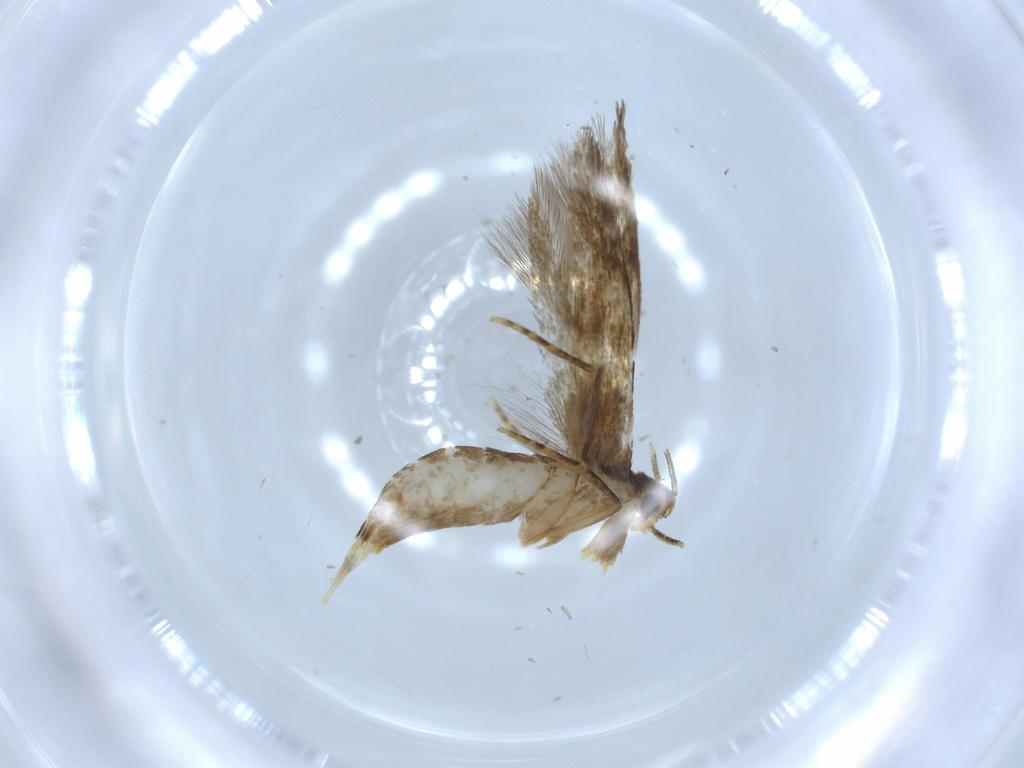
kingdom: Animalia
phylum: Arthropoda
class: Insecta
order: Lepidoptera
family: Tineidae
